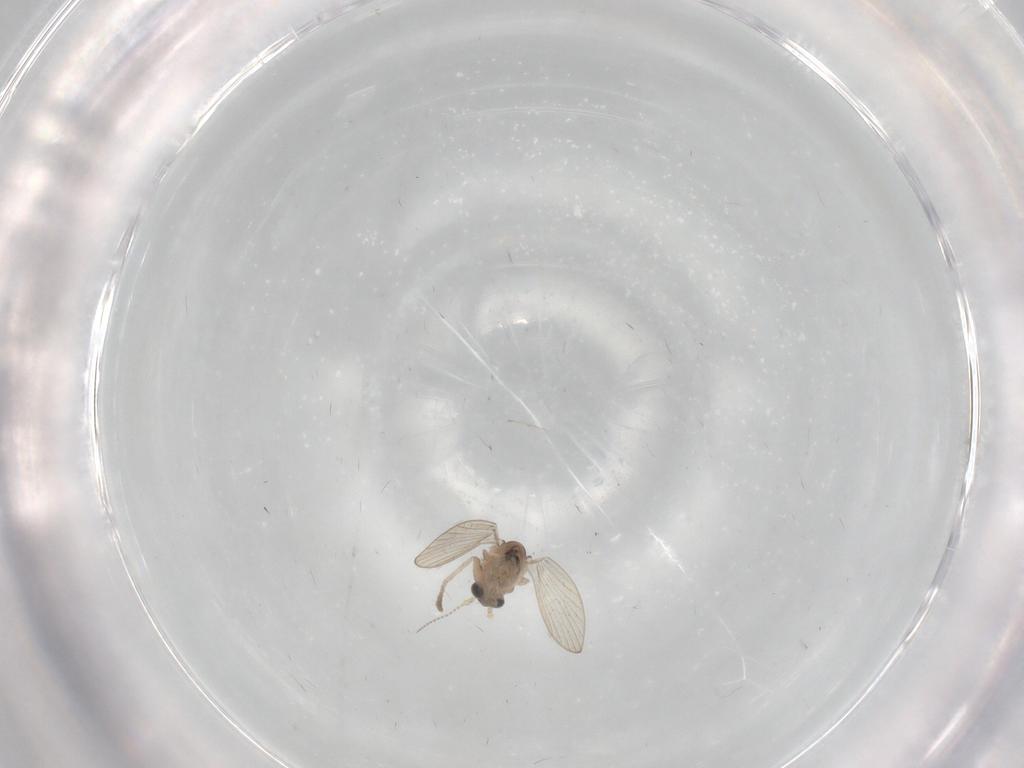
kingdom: Animalia
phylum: Arthropoda
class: Insecta
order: Diptera
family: Psychodidae
